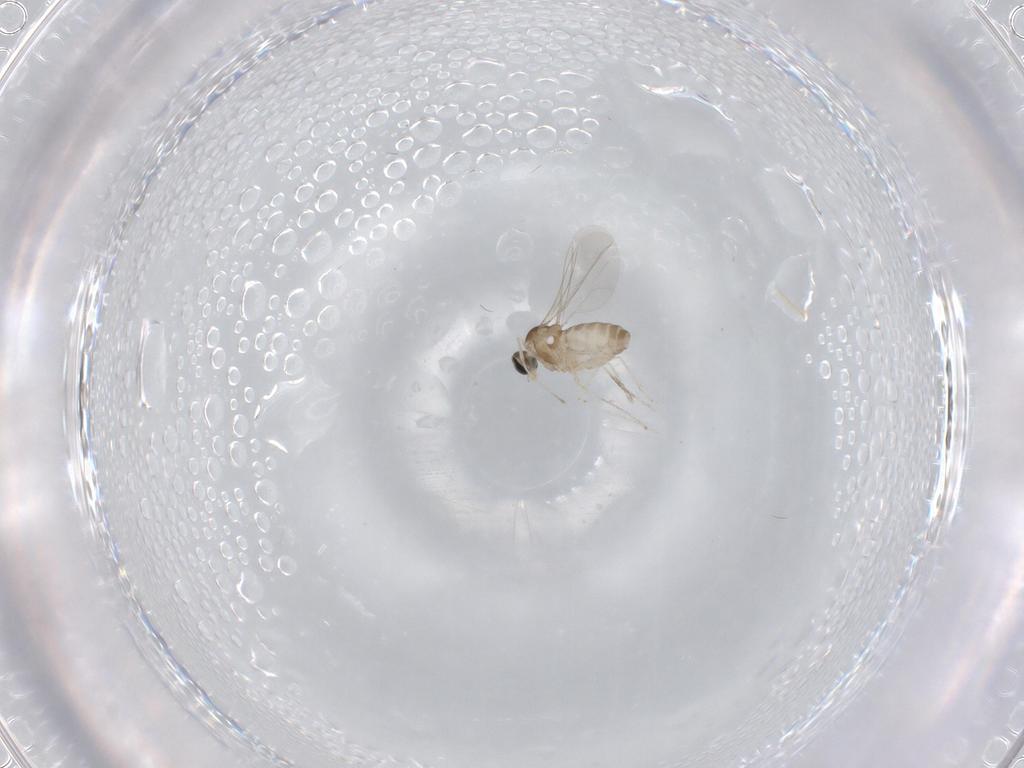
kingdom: Animalia
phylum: Arthropoda
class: Insecta
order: Diptera
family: Cecidomyiidae
